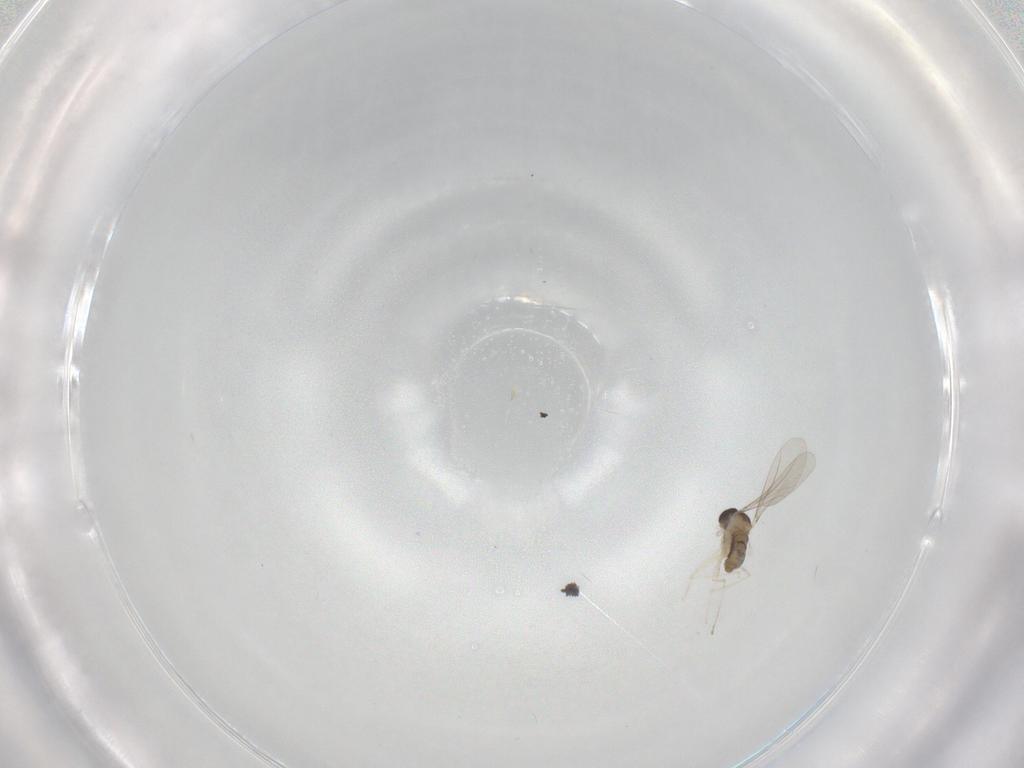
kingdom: Animalia
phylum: Arthropoda
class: Insecta
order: Diptera
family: Cecidomyiidae
